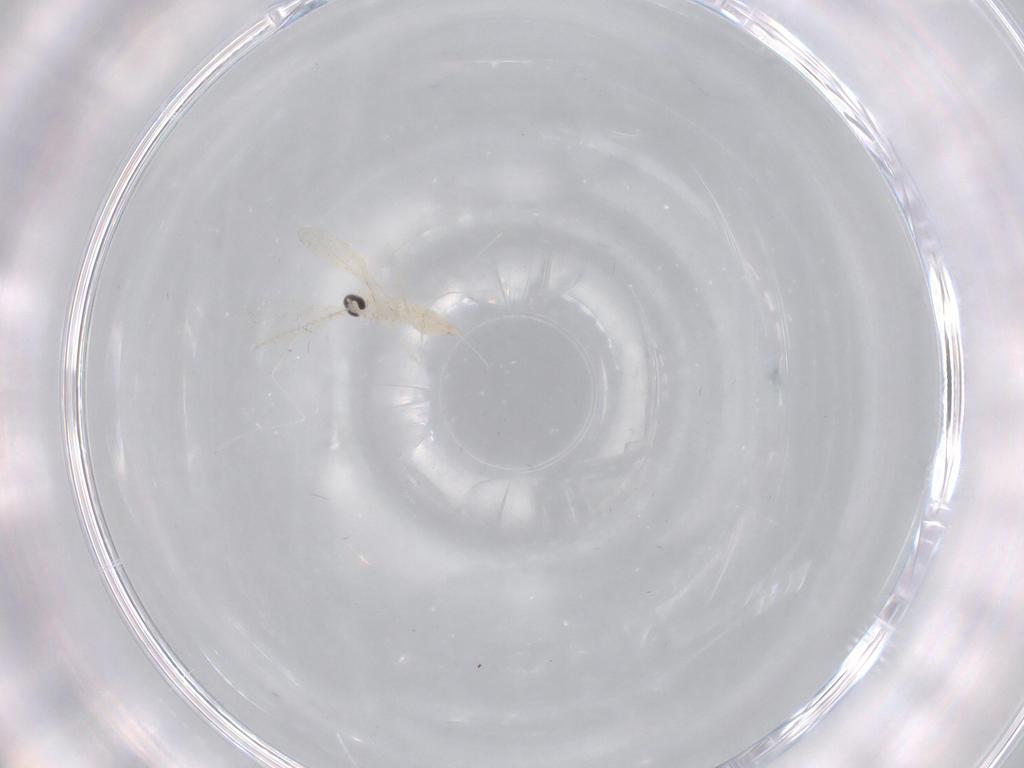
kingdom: Animalia
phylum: Arthropoda
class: Insecta
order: Diptera
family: Cecidomyiidae
